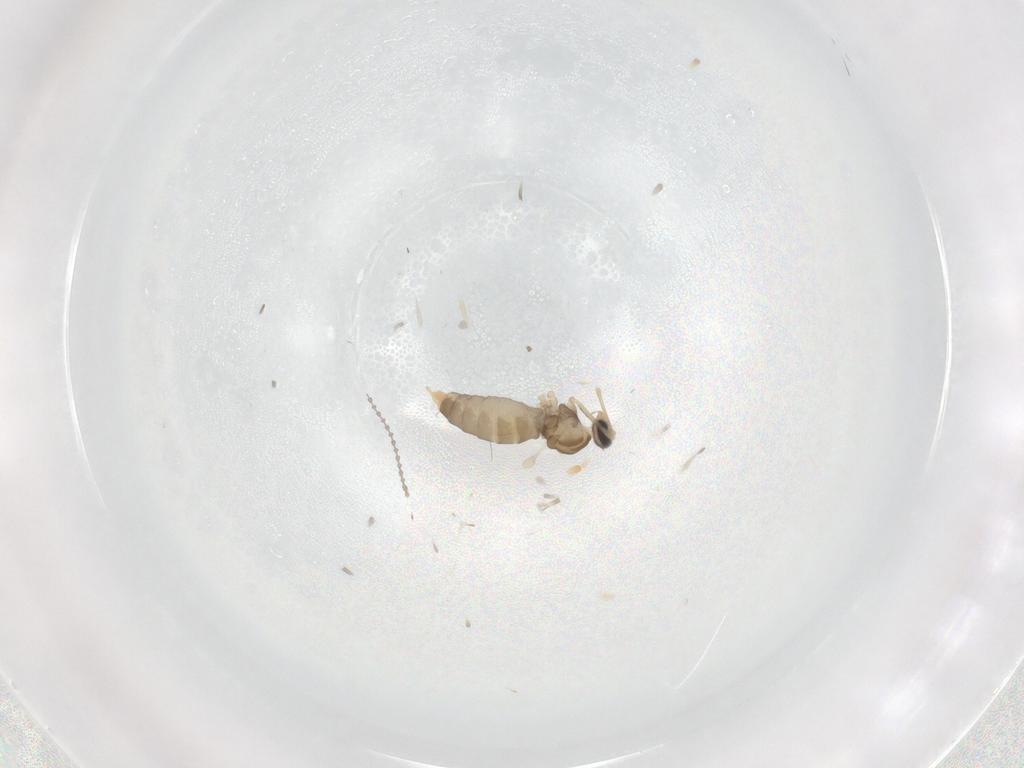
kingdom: Animalia
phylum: Arthropoda
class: Insecta
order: Diptera
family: Cecidomyiidae
